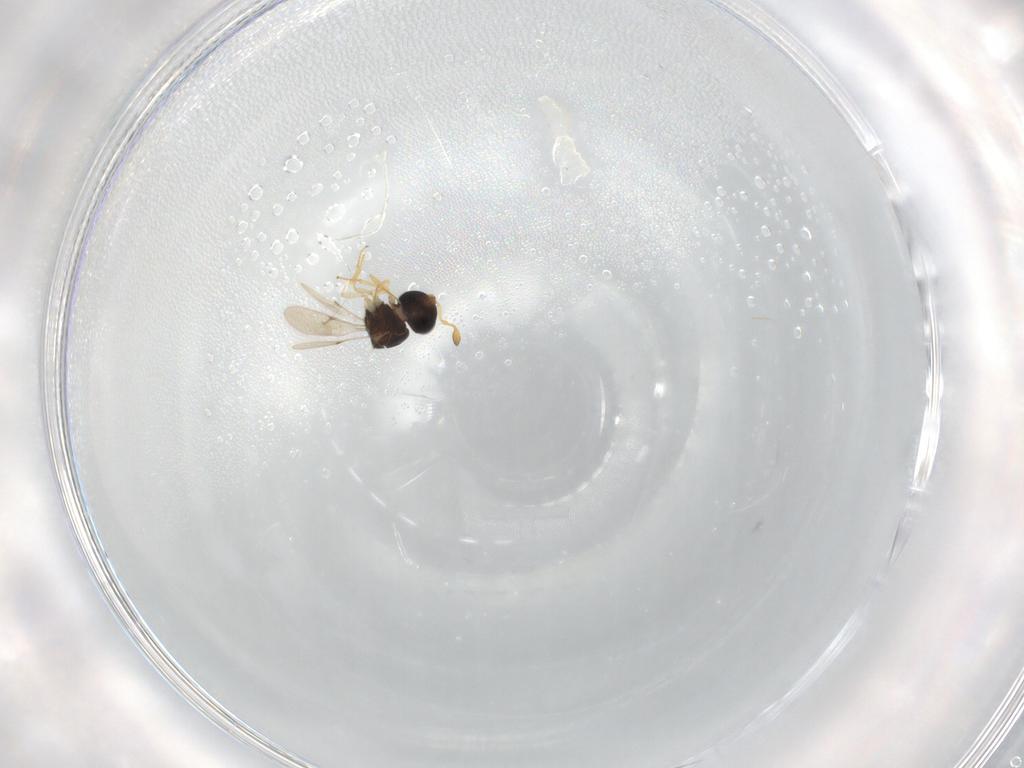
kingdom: Animalia
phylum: Arthropoda
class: Insecta
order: Hymenoptera
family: Scelionidae
